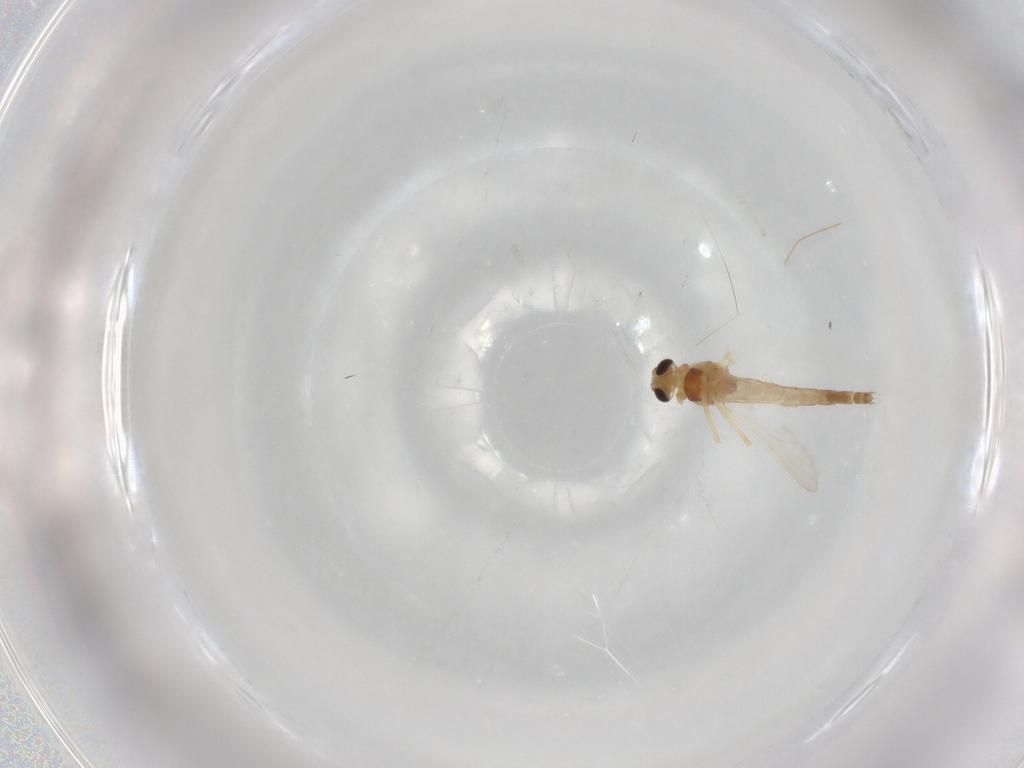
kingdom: Animalia
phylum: Arthropoda
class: Insecta
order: Diptera
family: Chironomidae
